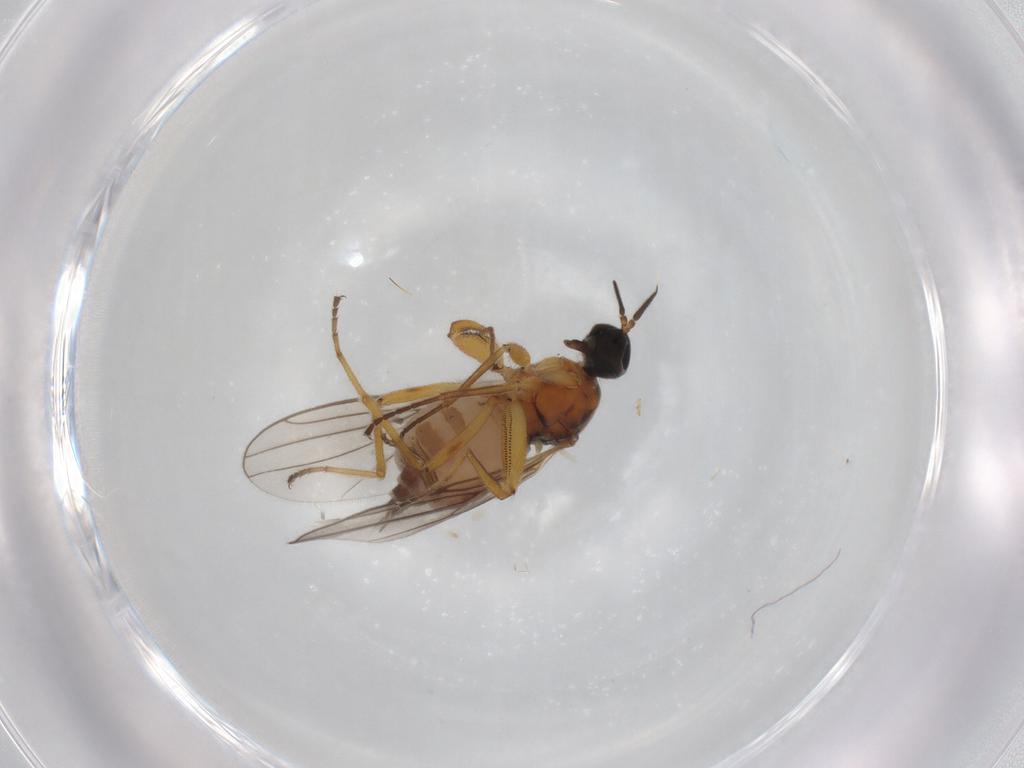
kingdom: Animalia
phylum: Arthropoda
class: Insecta
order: Diptera
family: Hybotidae
